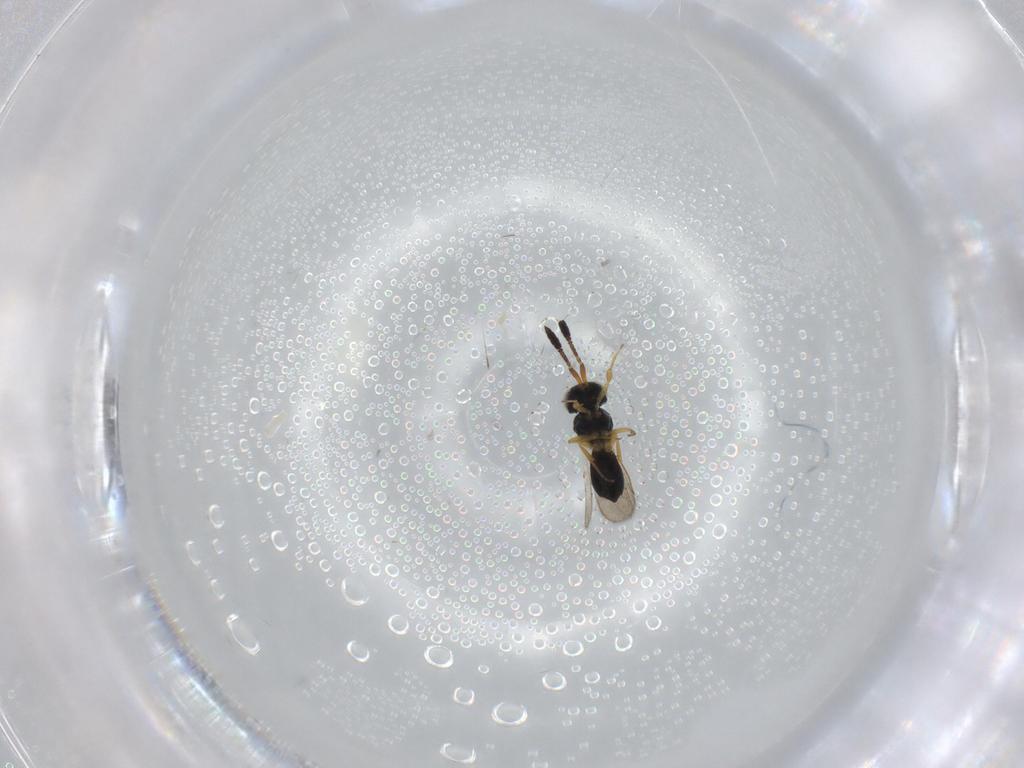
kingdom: Animalia
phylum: Arthropoda
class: Insecta
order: Hymenoptera
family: Scelionidae
